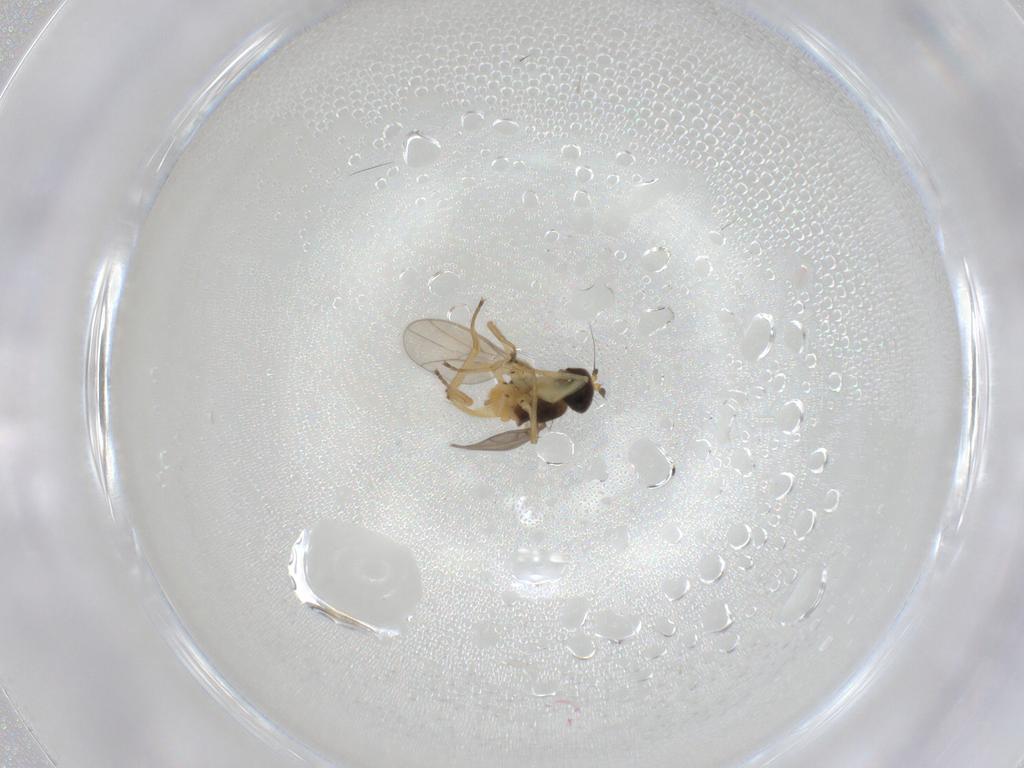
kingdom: Animalia
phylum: Arthropoda
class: Insecta
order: Diptera
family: Hybotidae
